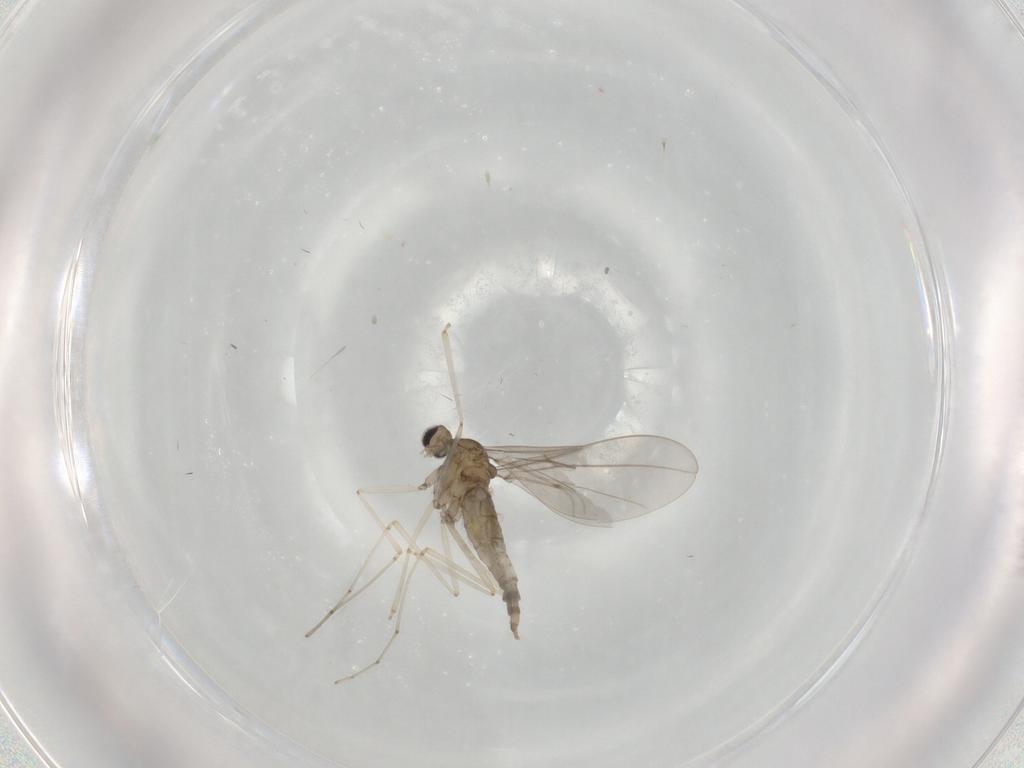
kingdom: Animalia
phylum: Arthropoda
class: Insecta
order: Diptera
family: Cecidomyiidae
